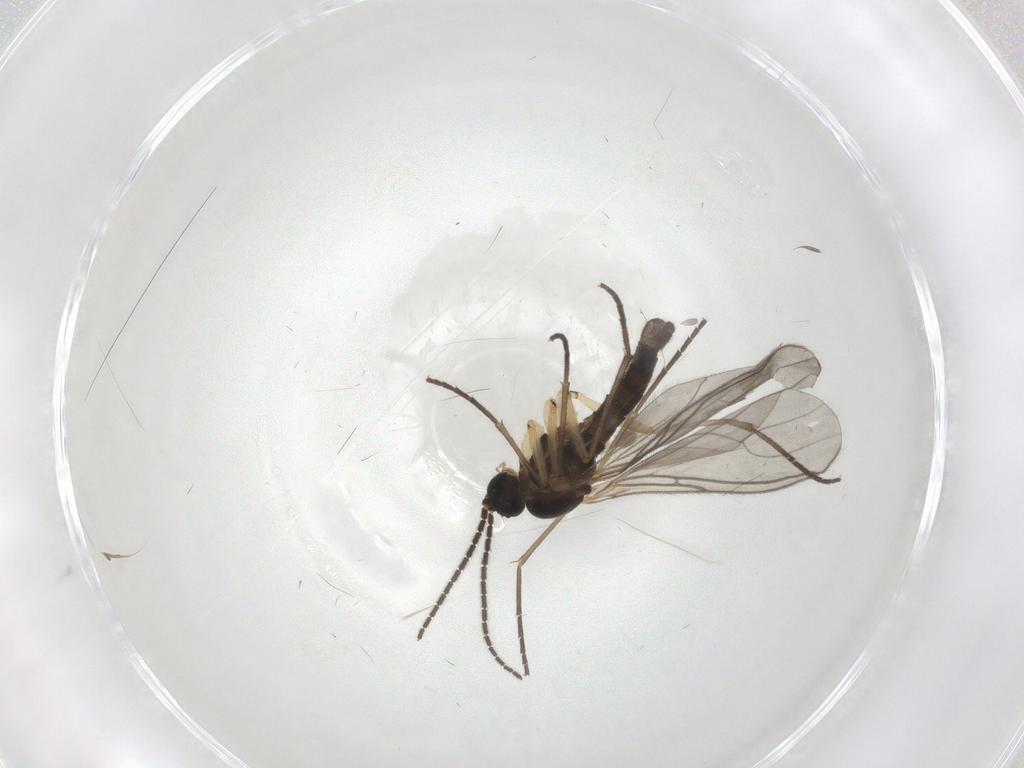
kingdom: Animalia
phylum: Arthropoda
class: Insecta
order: Diptera
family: Sciaridae
